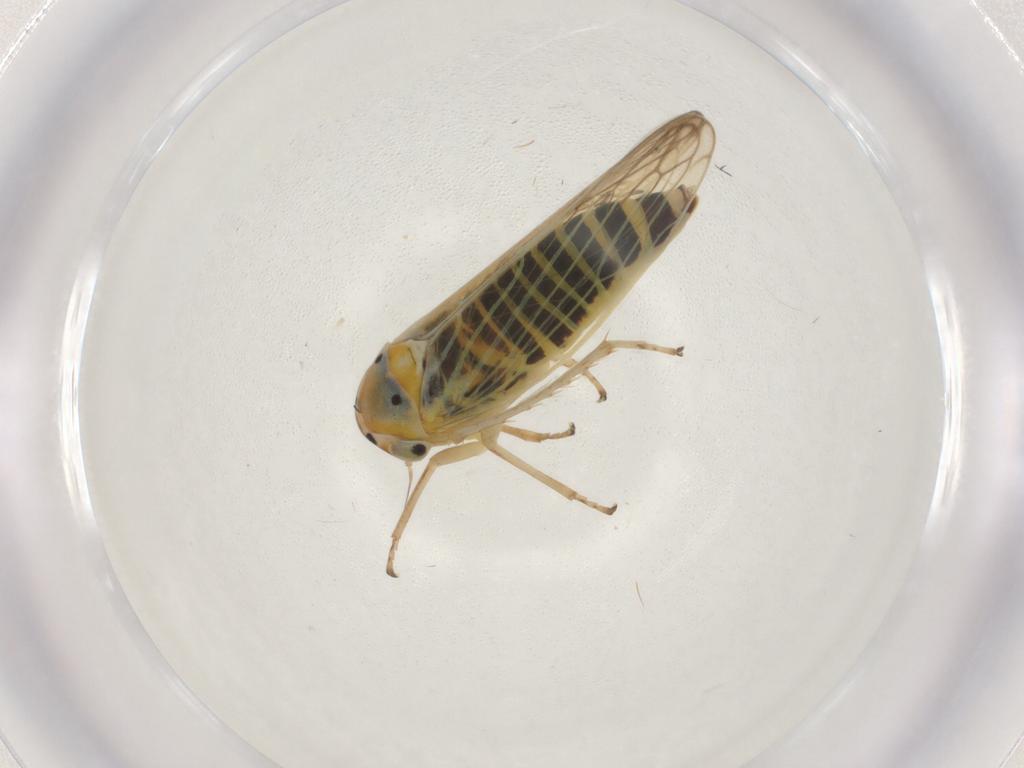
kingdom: Animalia
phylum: Arthropoda
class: Insecta
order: Hemiptera
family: Cicadellidae
